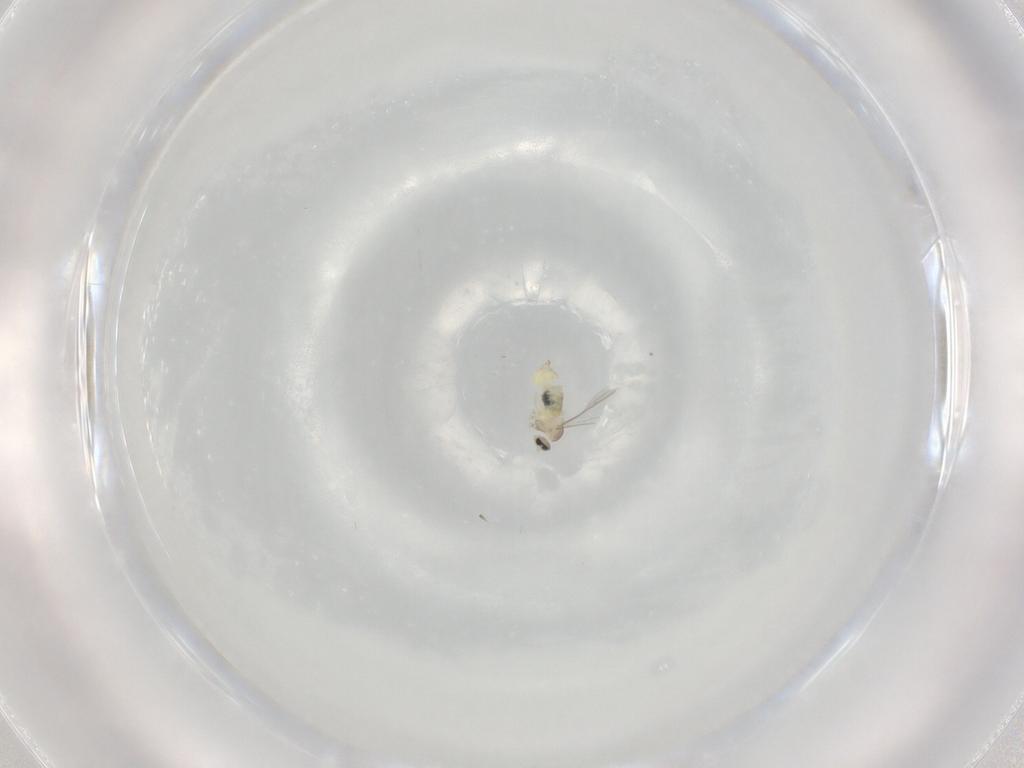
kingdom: Animalia
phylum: Arthropoda
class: Insecta
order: Diptera
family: Cecidomyiidae
